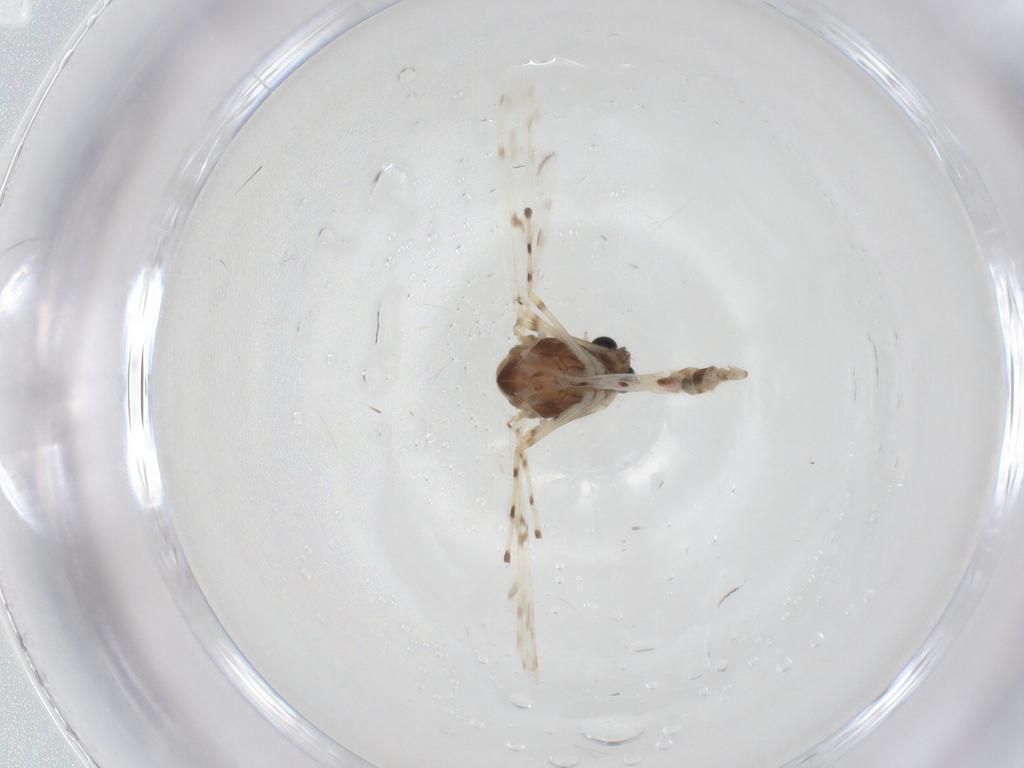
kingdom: Animalia
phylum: Arthropoda
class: Insecta
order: Diptera
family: Chironomidae
